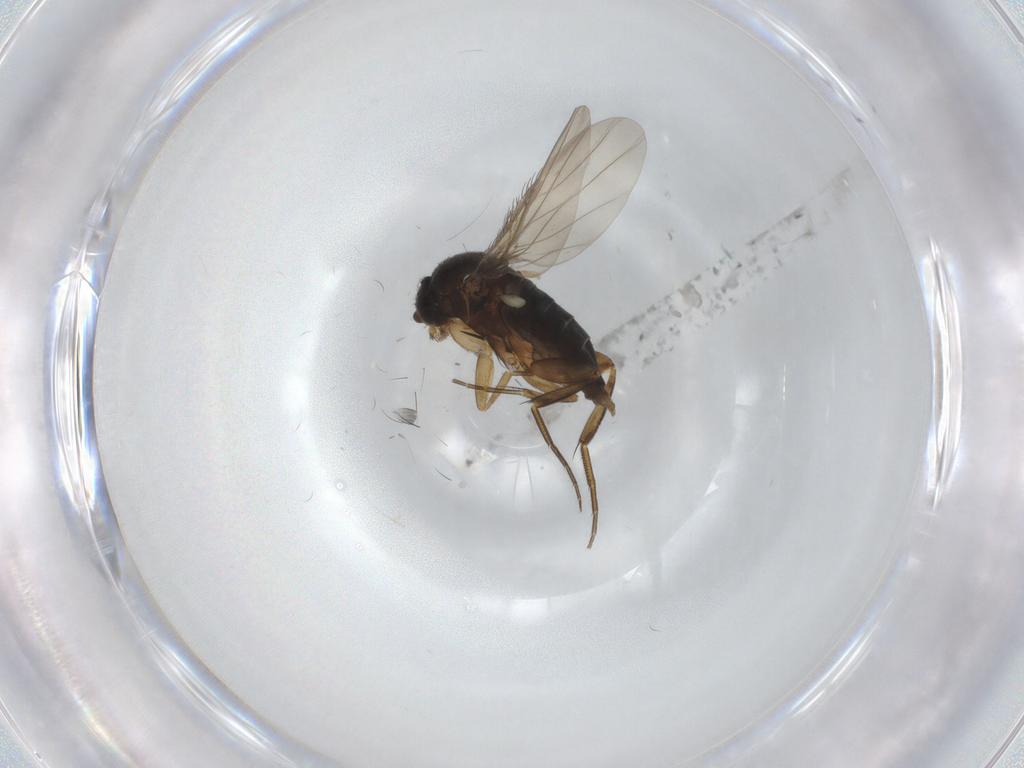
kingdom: Animalia
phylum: Arthropoda
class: Insecta
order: Diptera
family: Phoridae
